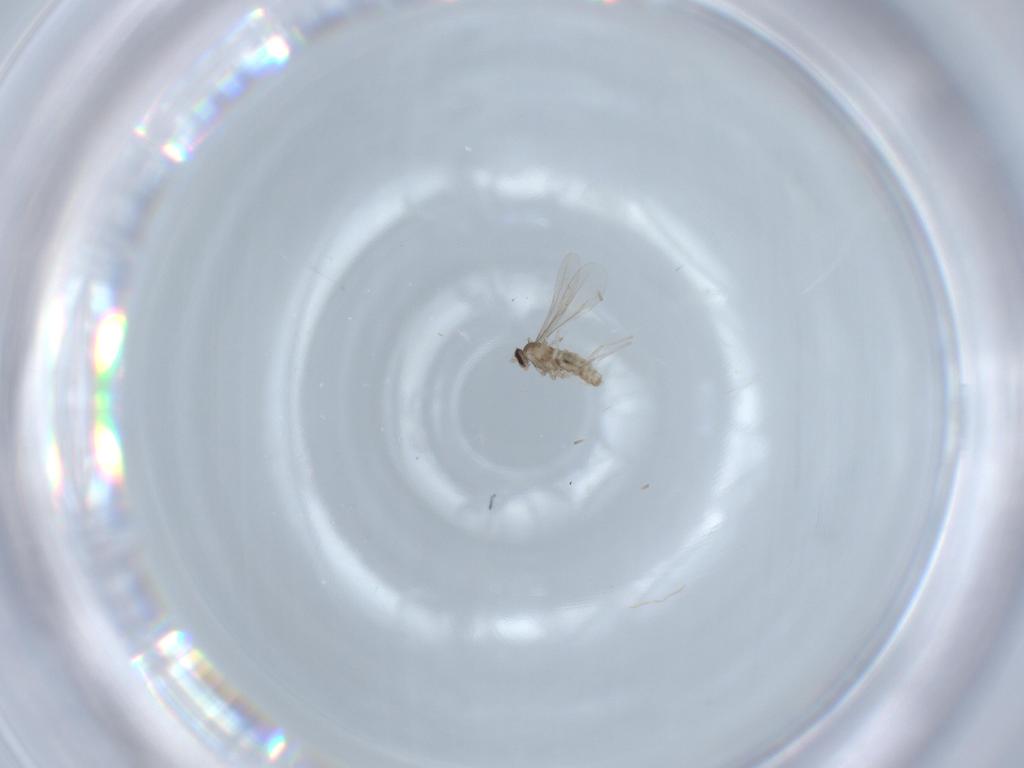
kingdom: Animalia
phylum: Arthropoda
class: Insecta
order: Diptera
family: Cecidomyiidae
